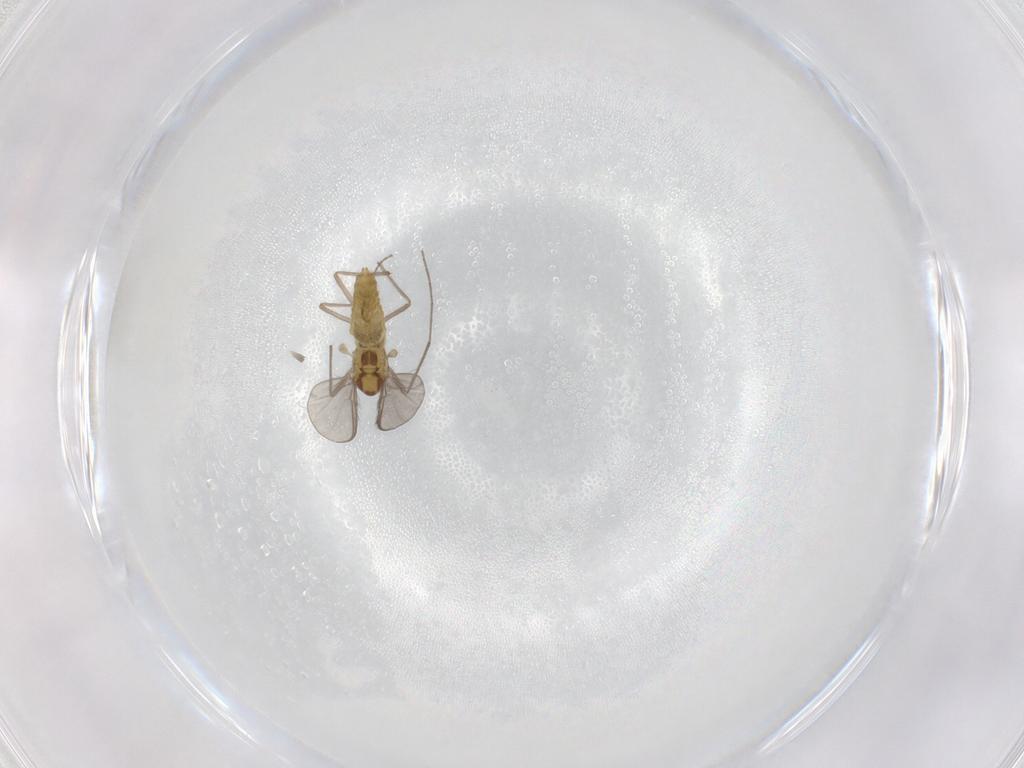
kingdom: Animalia
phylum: Arthropoda
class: Insecta
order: Diptera
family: Chironomidae
